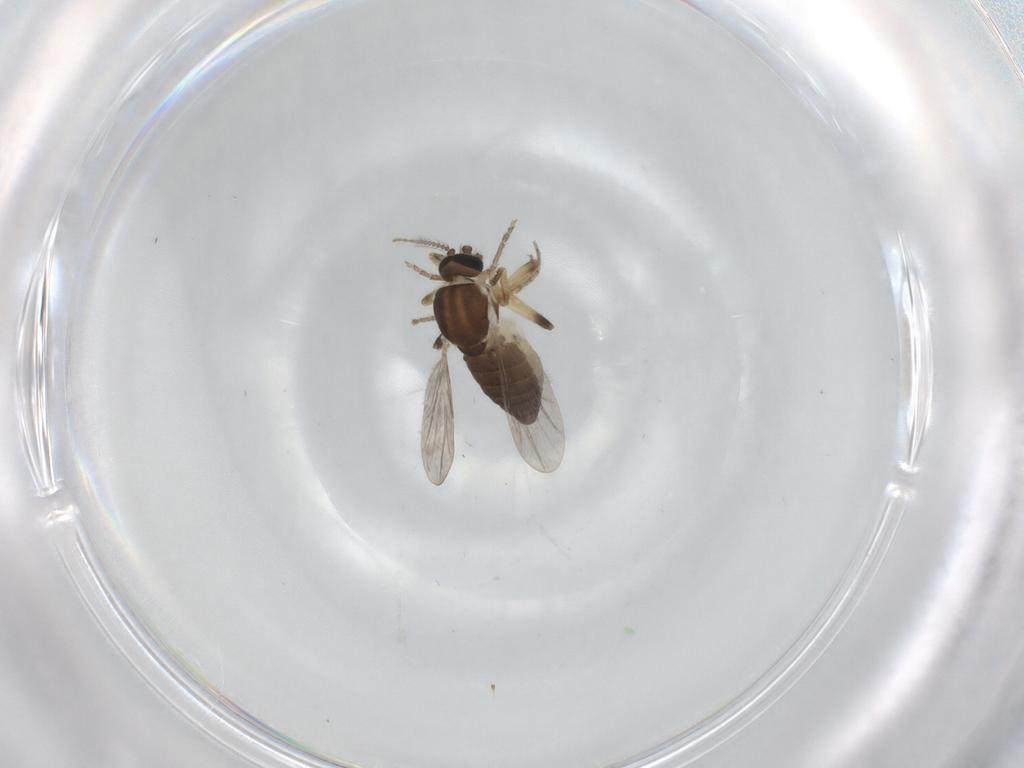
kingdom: Animalia
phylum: Arthropoda
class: Insecta
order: Diptera
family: Ceratopogonidae
